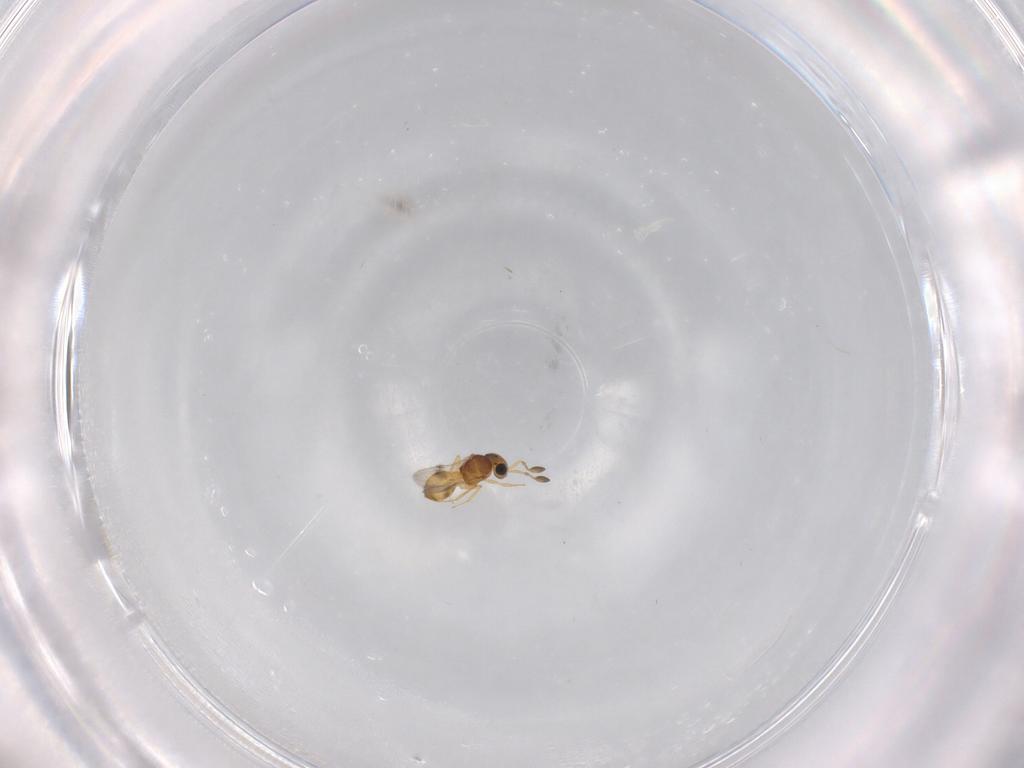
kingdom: Animalia
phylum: Arthropoda
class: Insecta
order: Hymenoptera
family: Scelionidae
